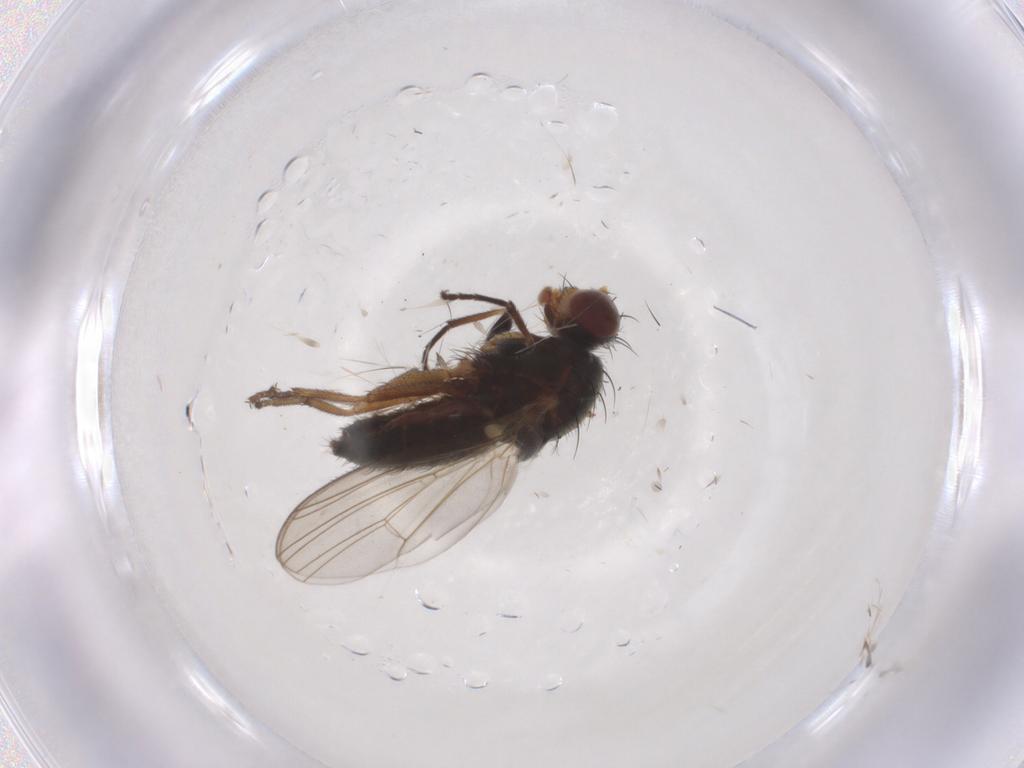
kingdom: Animalia
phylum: Arthropoda
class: Insecta
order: Diptera
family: Heleomyzidae
